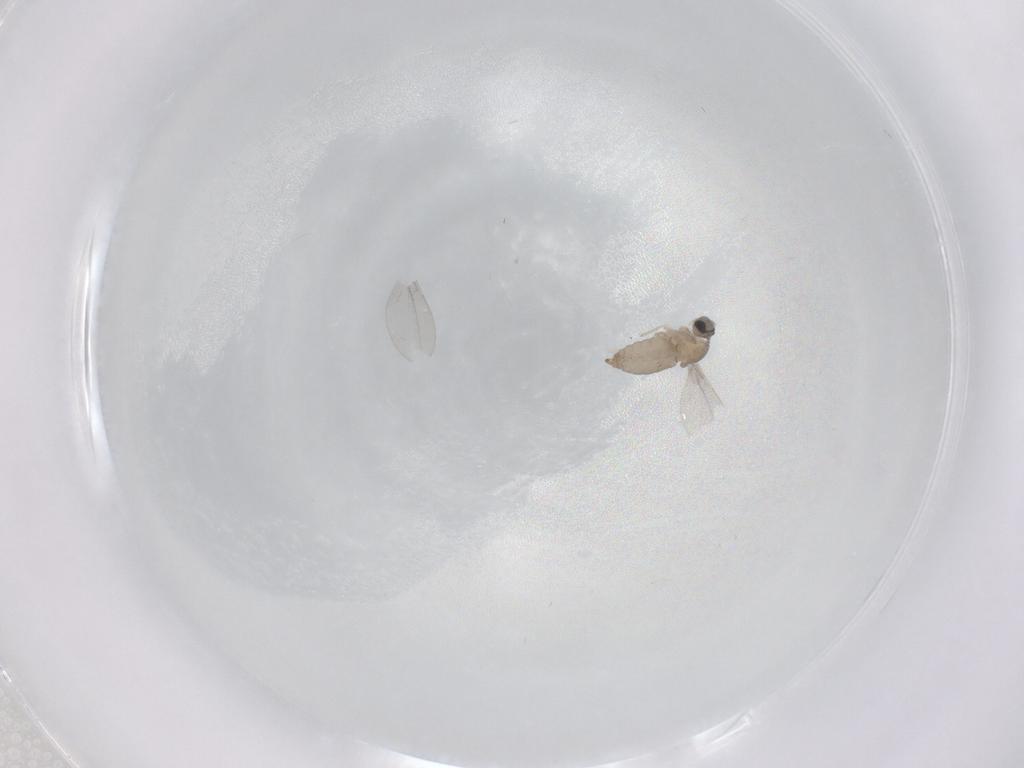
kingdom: Animalia
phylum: Arthropoda
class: Insecta
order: Diptera
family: Cecidomyiidae
